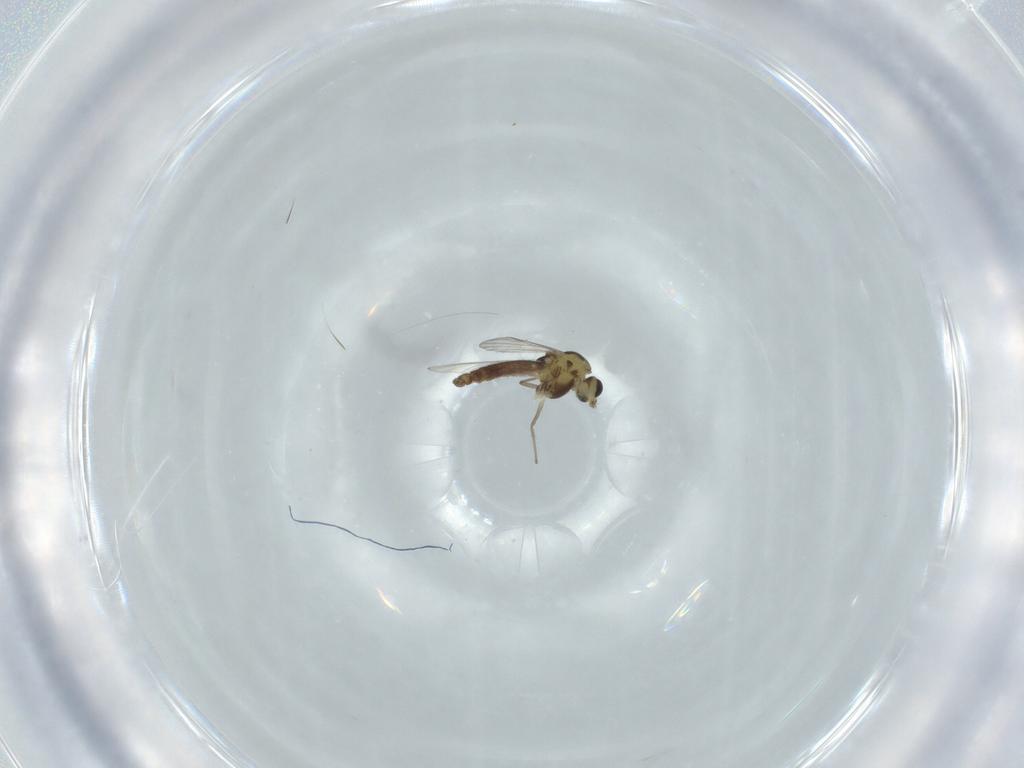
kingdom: Animalia
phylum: Arthropoda
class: Insecta
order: Diptera
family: Chironomidae
